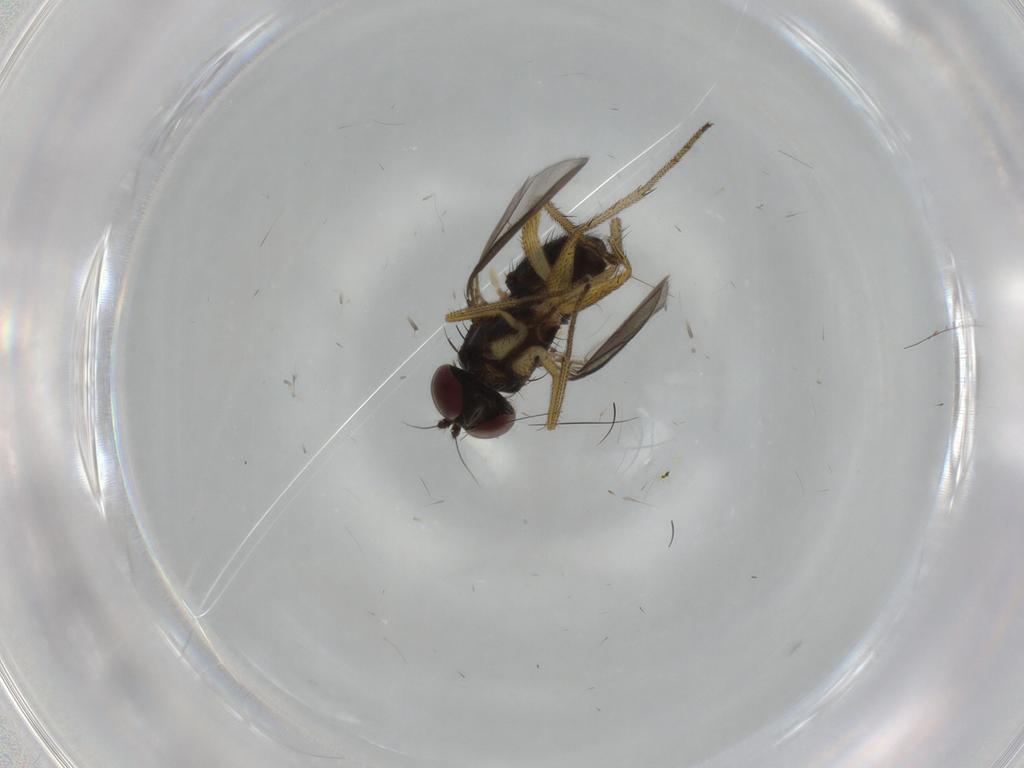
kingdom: Animalia
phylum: Arthropoda
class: Insecta
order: Diptera
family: Dolichopodidae
